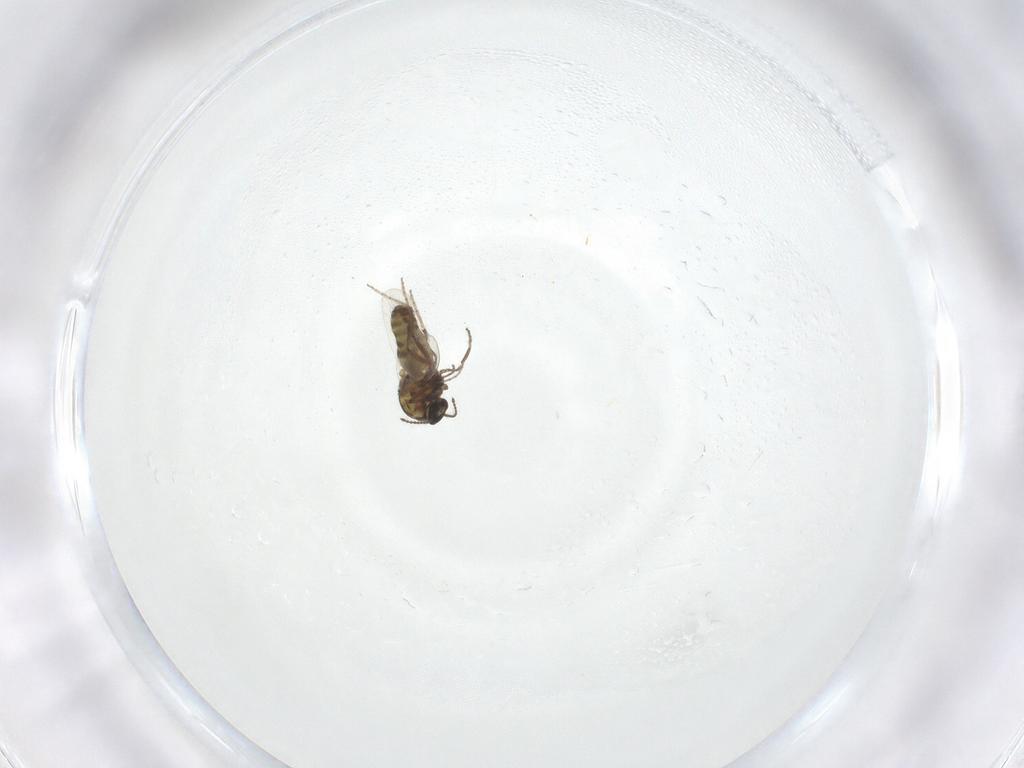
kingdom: Animalia
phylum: Arthropoda
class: Insecta
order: Diptera
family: Ceratopogonidae
